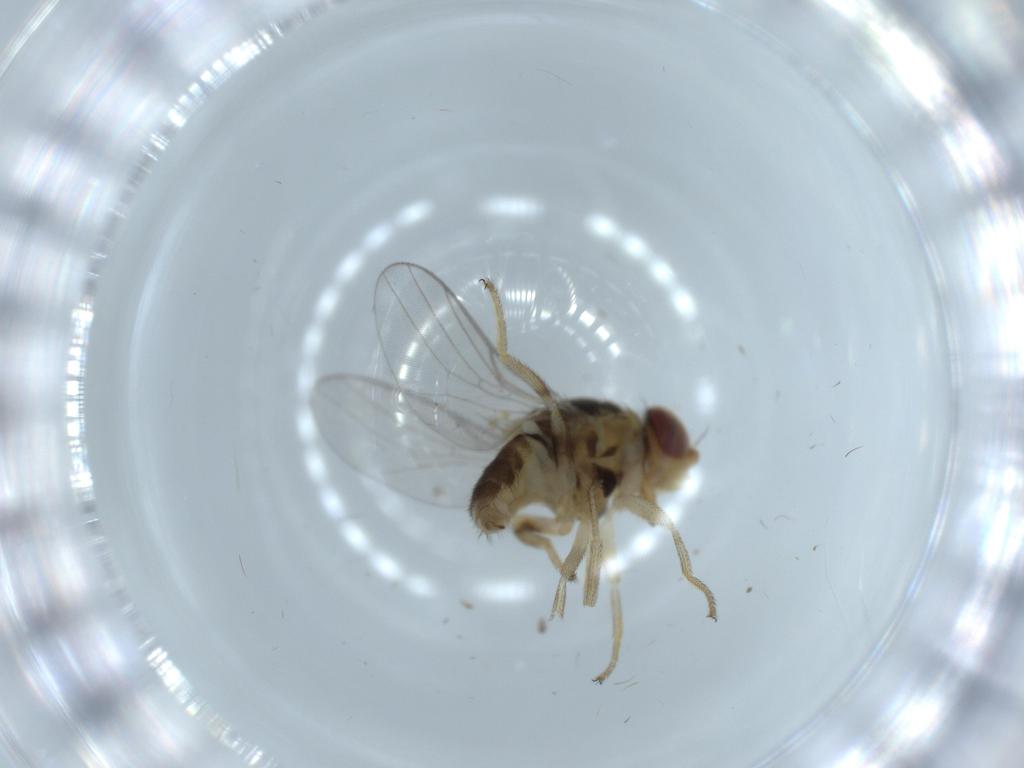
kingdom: Animalia
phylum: Arthropoda
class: Insecta
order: Diptera
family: Chloropidae
